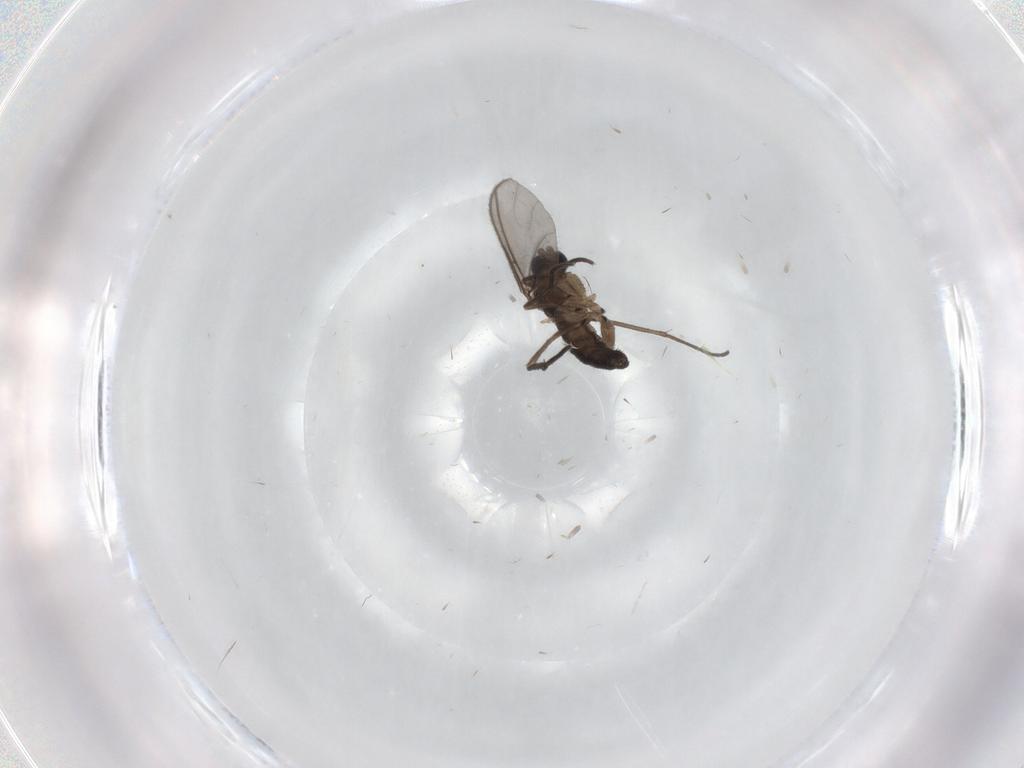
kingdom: Animalia
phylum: Arthropoda
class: Insecta
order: Diptera
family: Sciaridae
